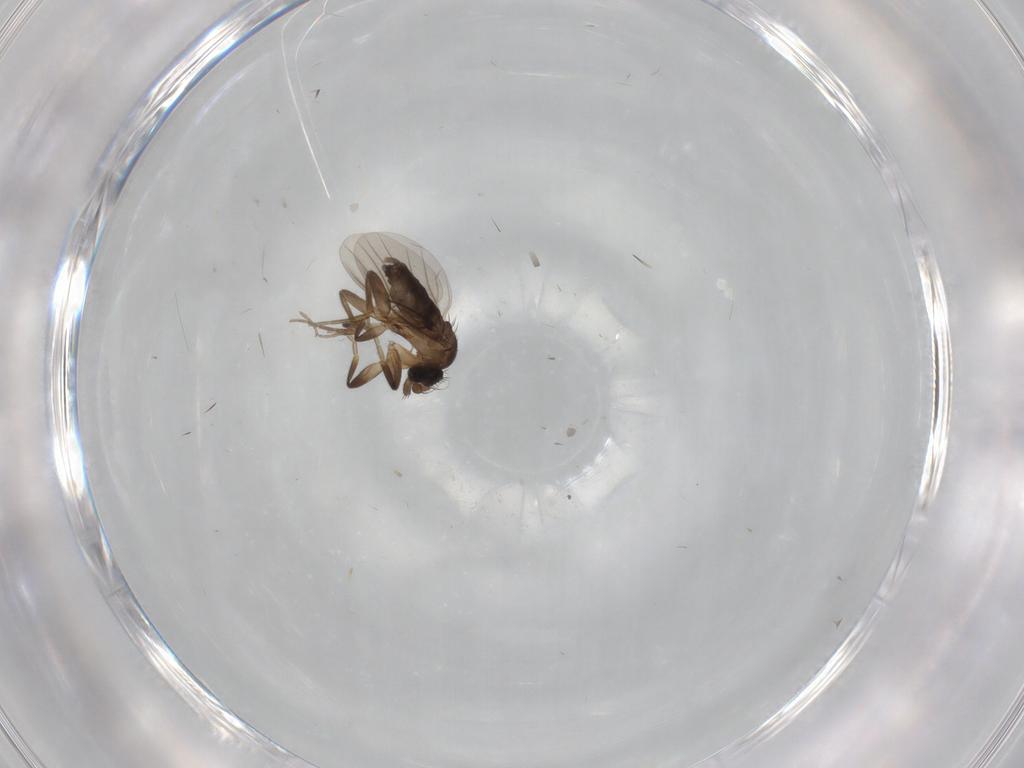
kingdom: Animalia
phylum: Arthropoda
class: Insecta
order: Diptera
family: Phoridae
